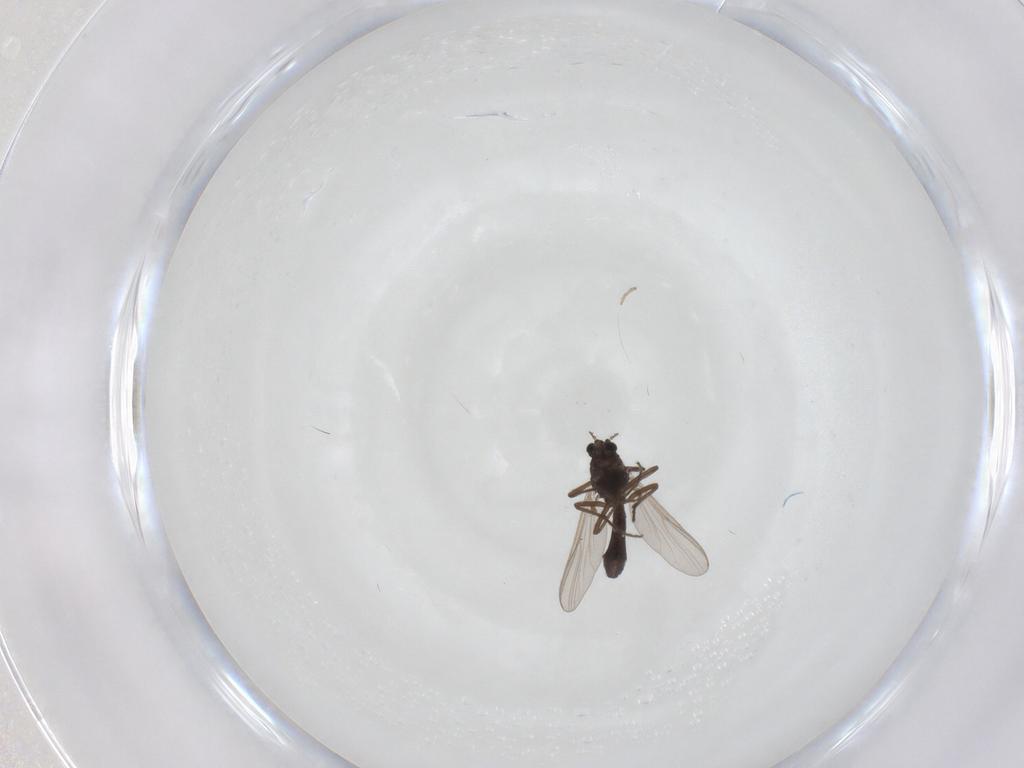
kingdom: Animalia
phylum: Arthropoda
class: Insecta
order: Diptera
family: Chironomidae
